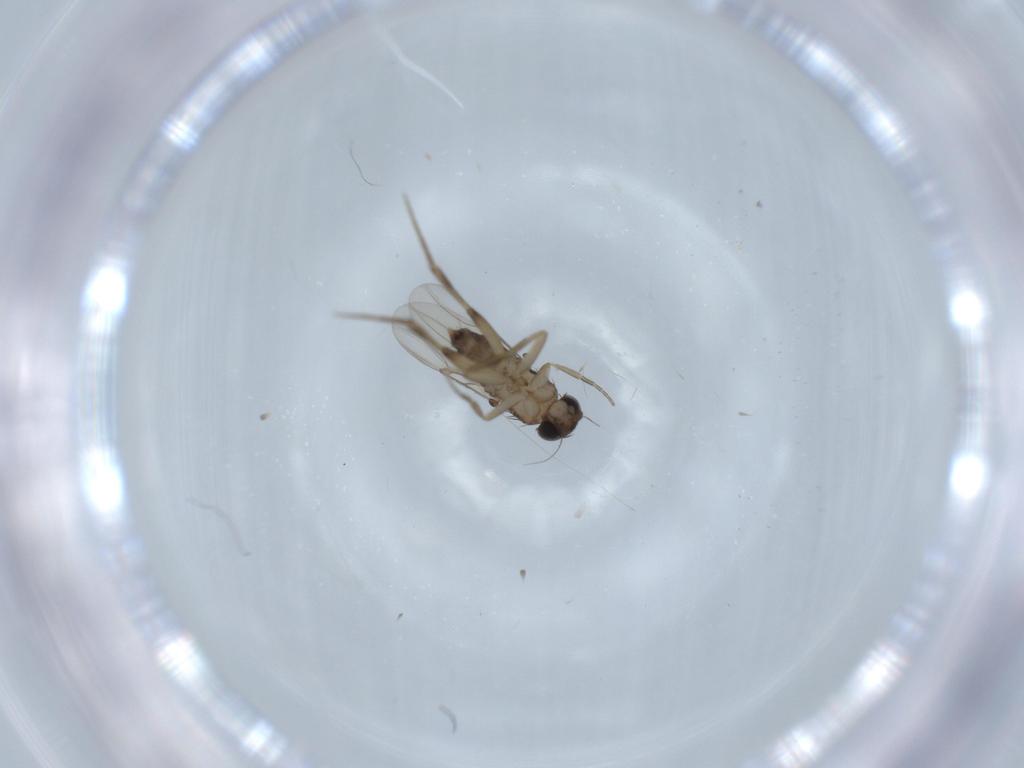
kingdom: Animalia
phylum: Arthropoda
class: Insecta
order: Diptera
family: Phoridae
